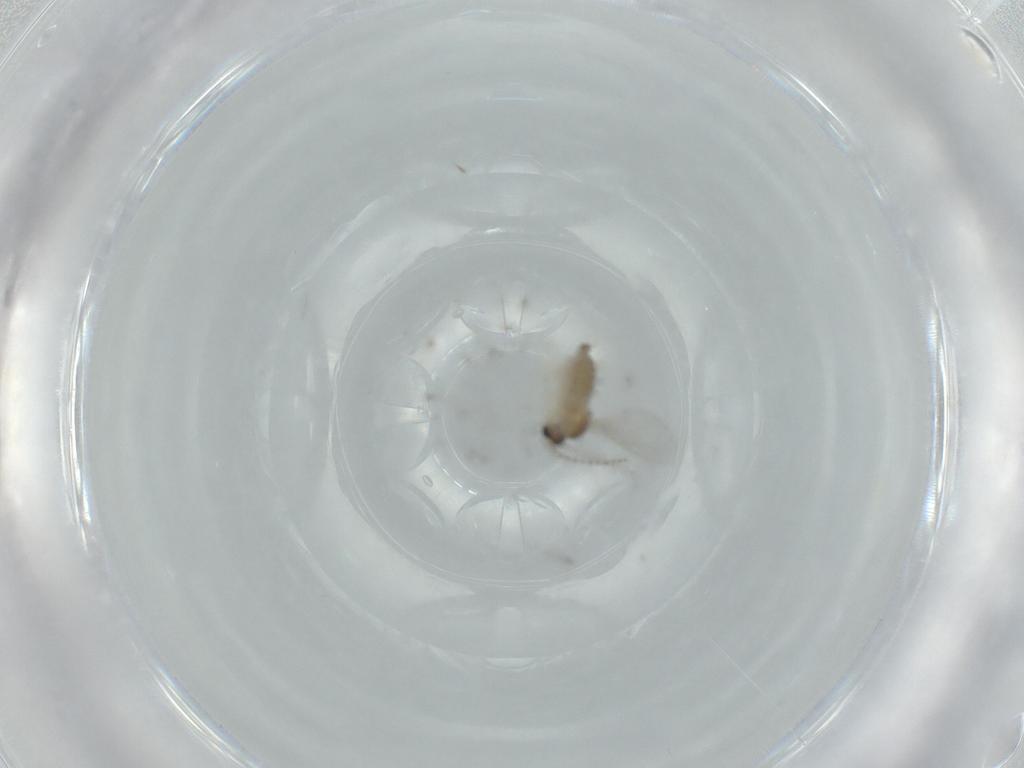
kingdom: Animalia
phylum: Arthropoda
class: Insecta
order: Diptera
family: Cecidomyiidae
